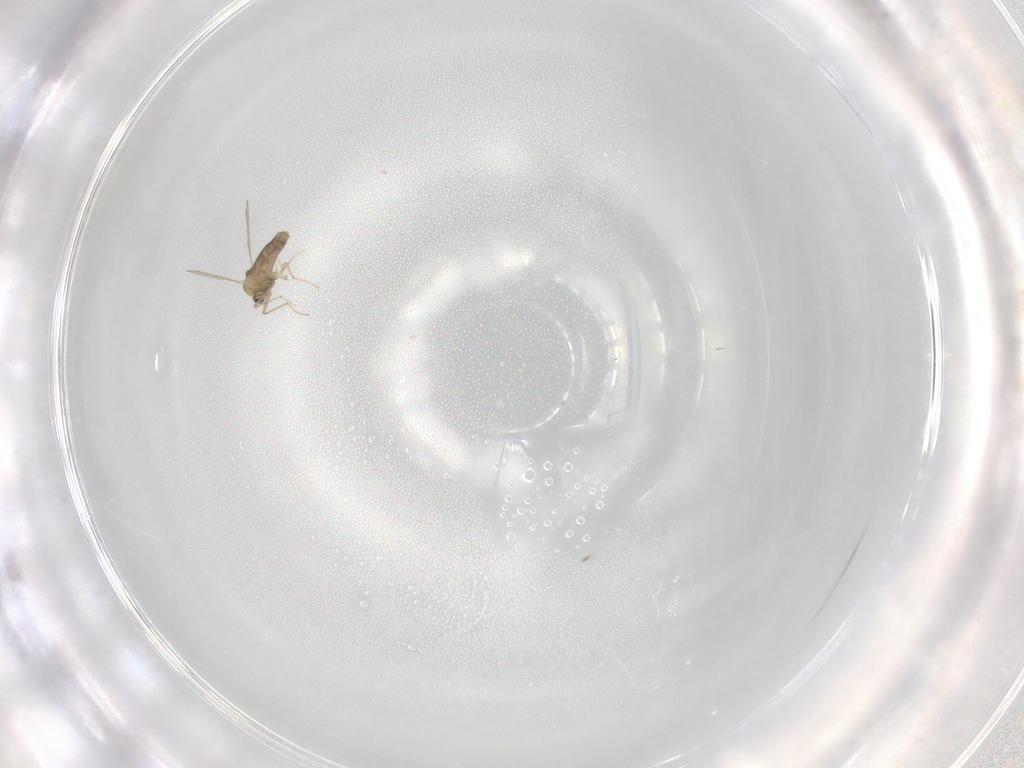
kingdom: Animalia
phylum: Arthropoda
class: Insecta
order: Diptera
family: Chironomidae
